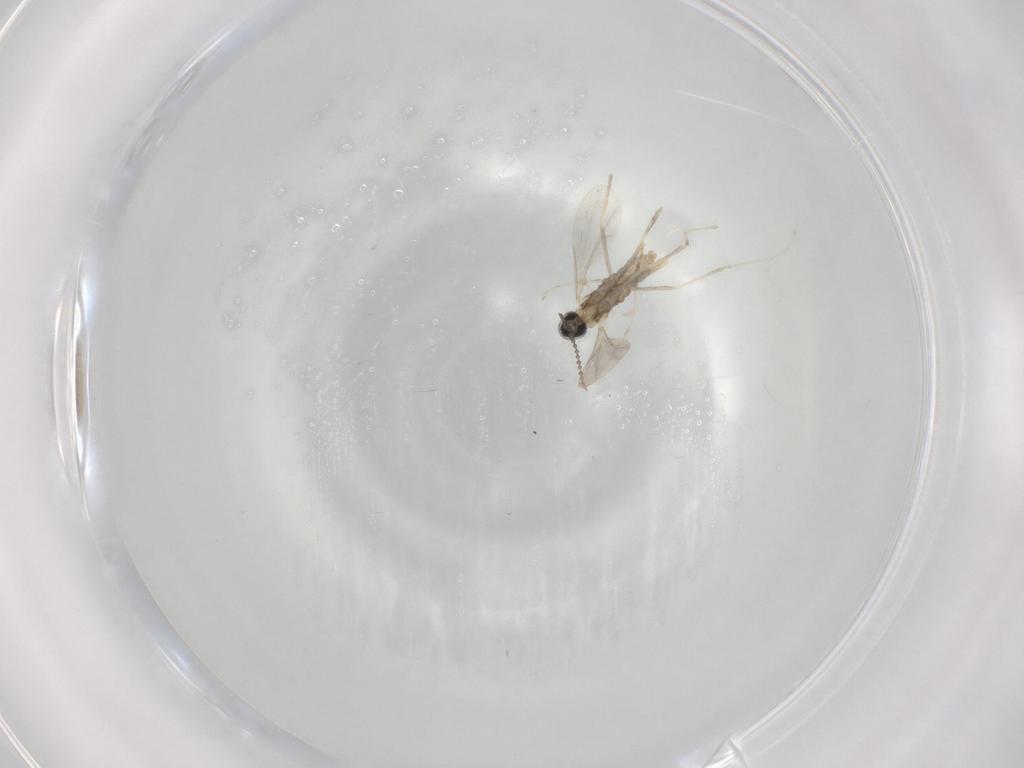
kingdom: Animalia
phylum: Arthropoda
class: Insecta
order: Diptera
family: Cecidomyiidae
